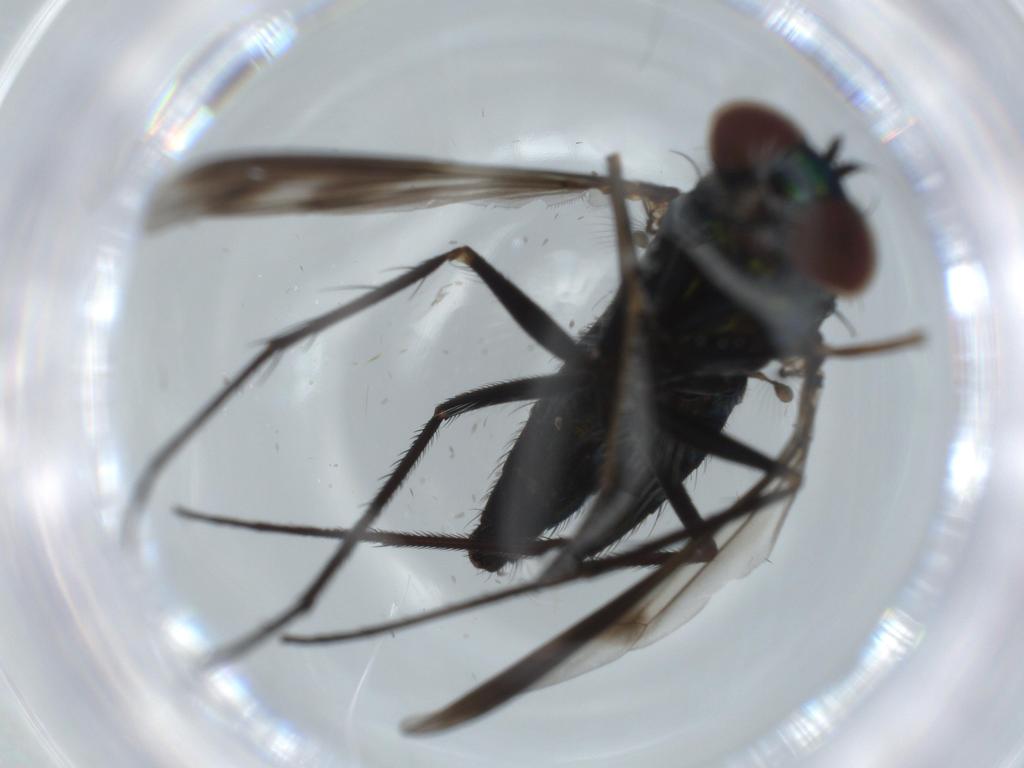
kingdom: Animalia
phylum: Arthropoda
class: Insecta
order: Diptera
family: Dolichopodidae
